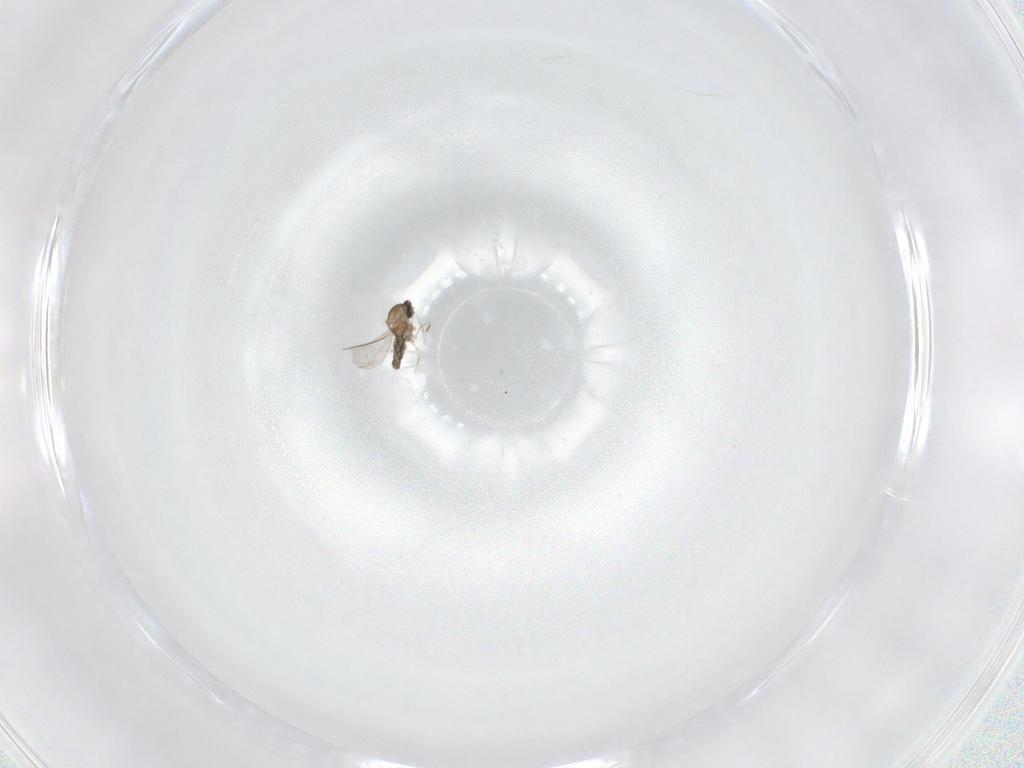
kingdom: Animalia
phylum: Arthropoda
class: Insecta
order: Diptera
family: Cecidomyiidae
